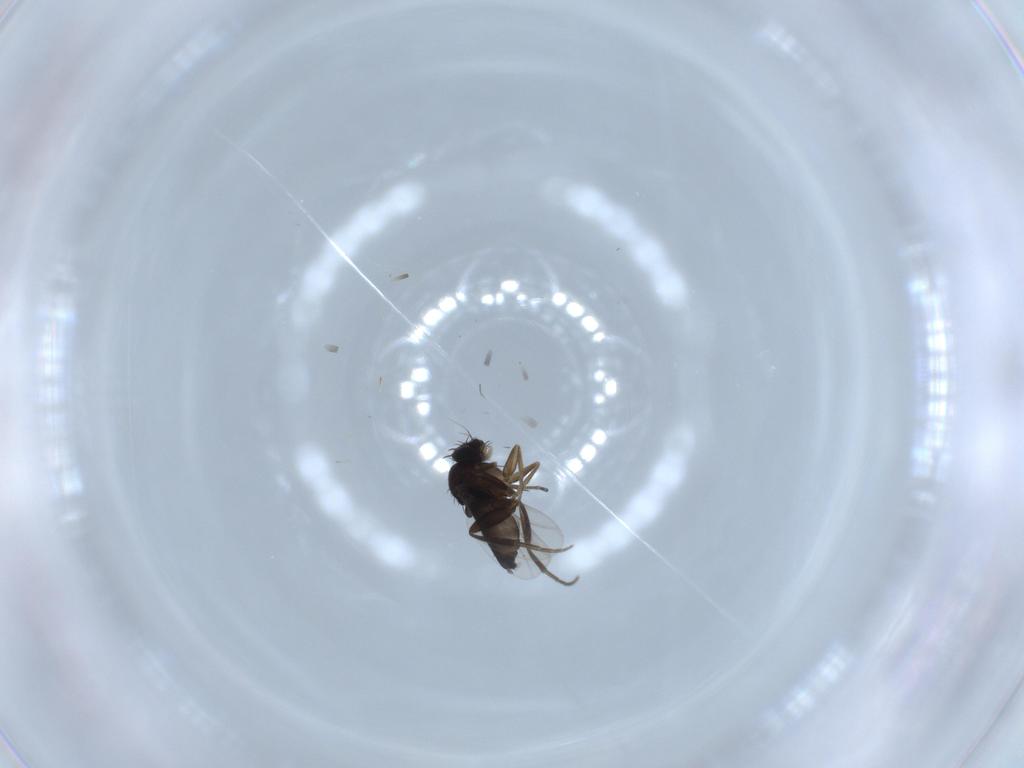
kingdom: Animalia
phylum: Arthropoda
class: Insecta
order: Diptera
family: Phoridae
